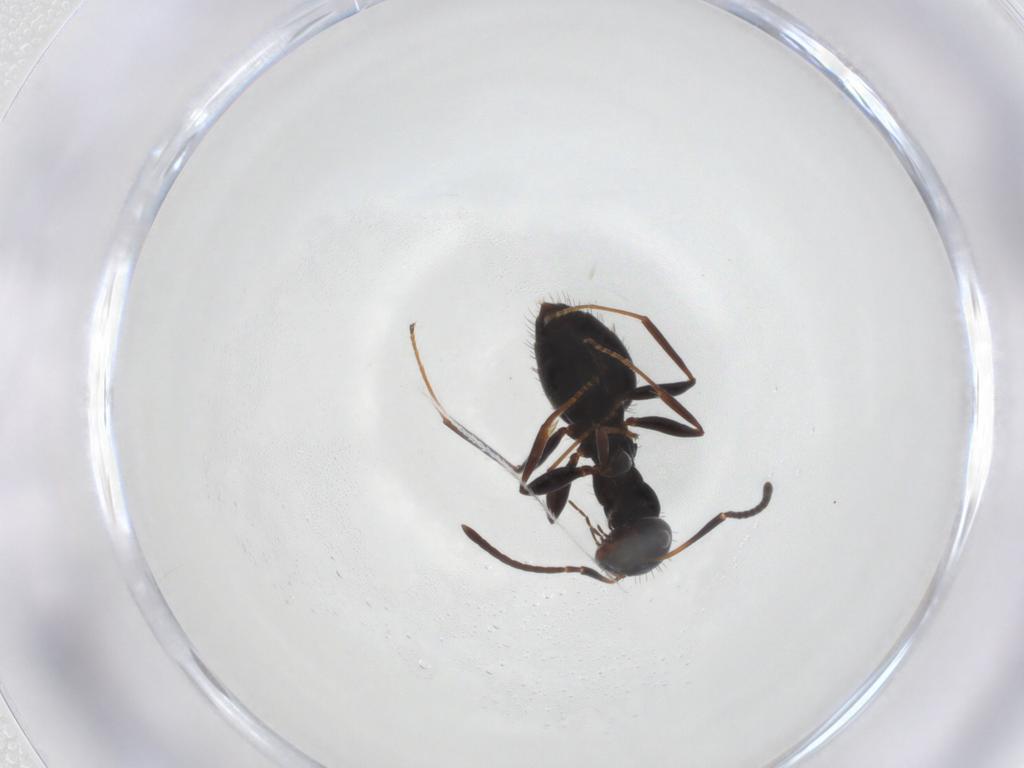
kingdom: Animalia
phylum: Arthropoda
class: Insecta
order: Hymenoptera
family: Formicidae
